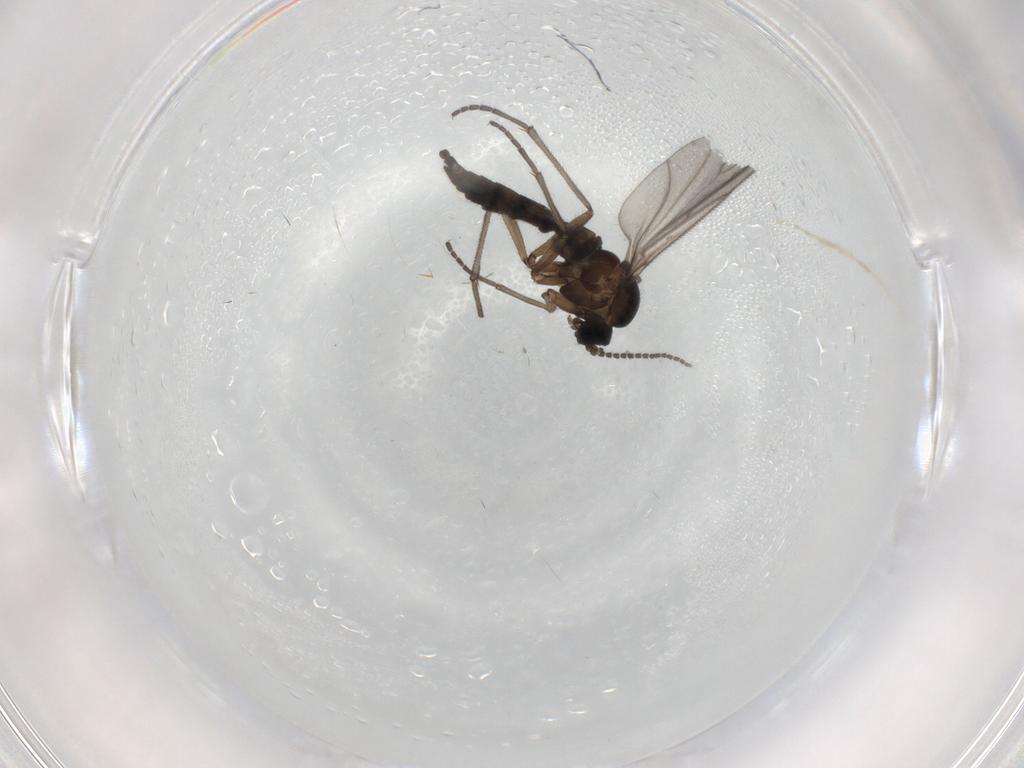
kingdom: Animalia
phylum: Arthropoda
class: Insecta
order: Diptera
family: Sciaridae
